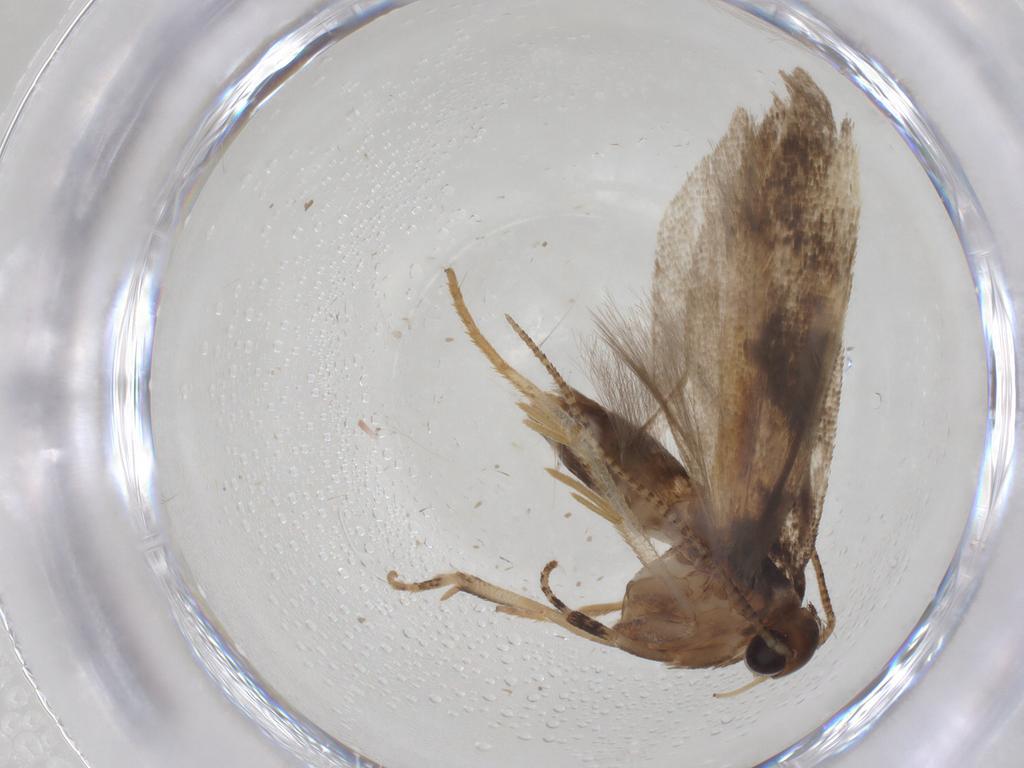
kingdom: Animalia
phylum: Arthropoda
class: Insecta
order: Lepidoptera
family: Gelechiidae
